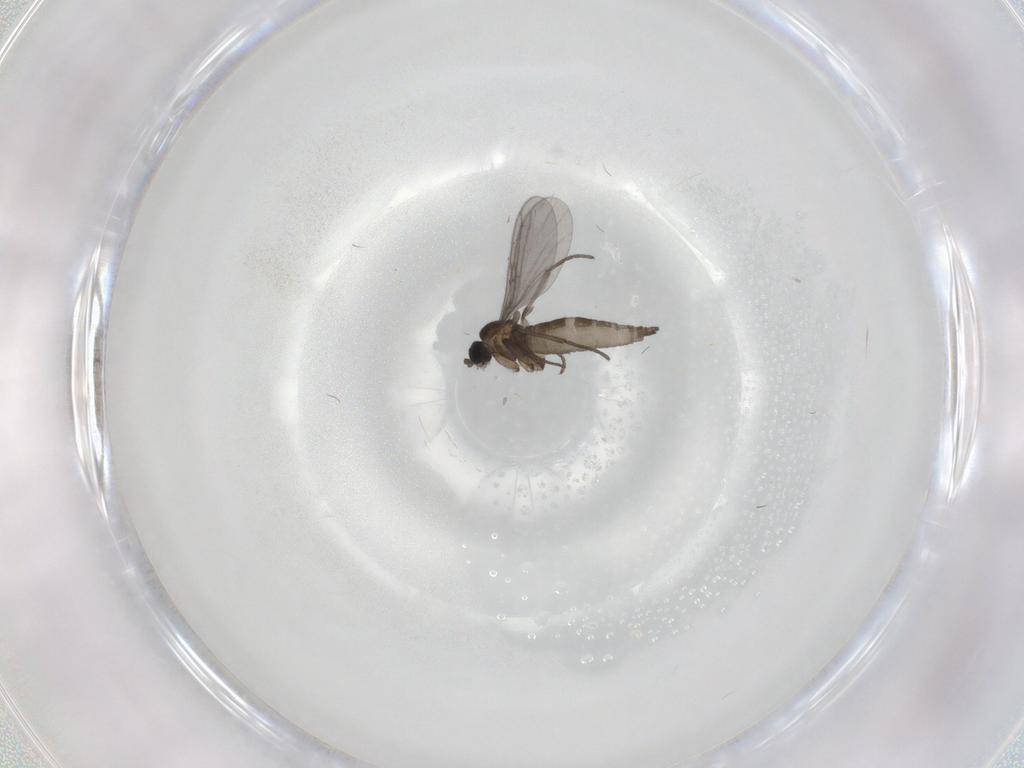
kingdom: Animalia
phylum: Arthropoda
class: Insecta
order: Diptera
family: Sciaridae
